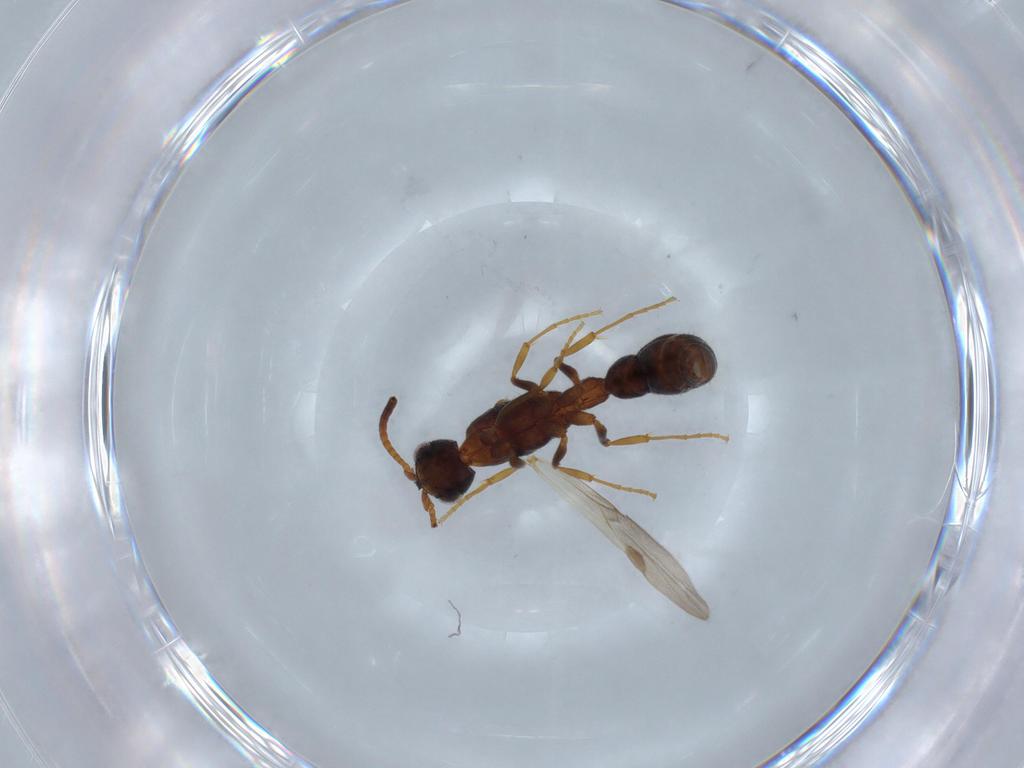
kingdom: Animalia
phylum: Arthropoda
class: Insecta
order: Hymenoptera
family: Formicidae
